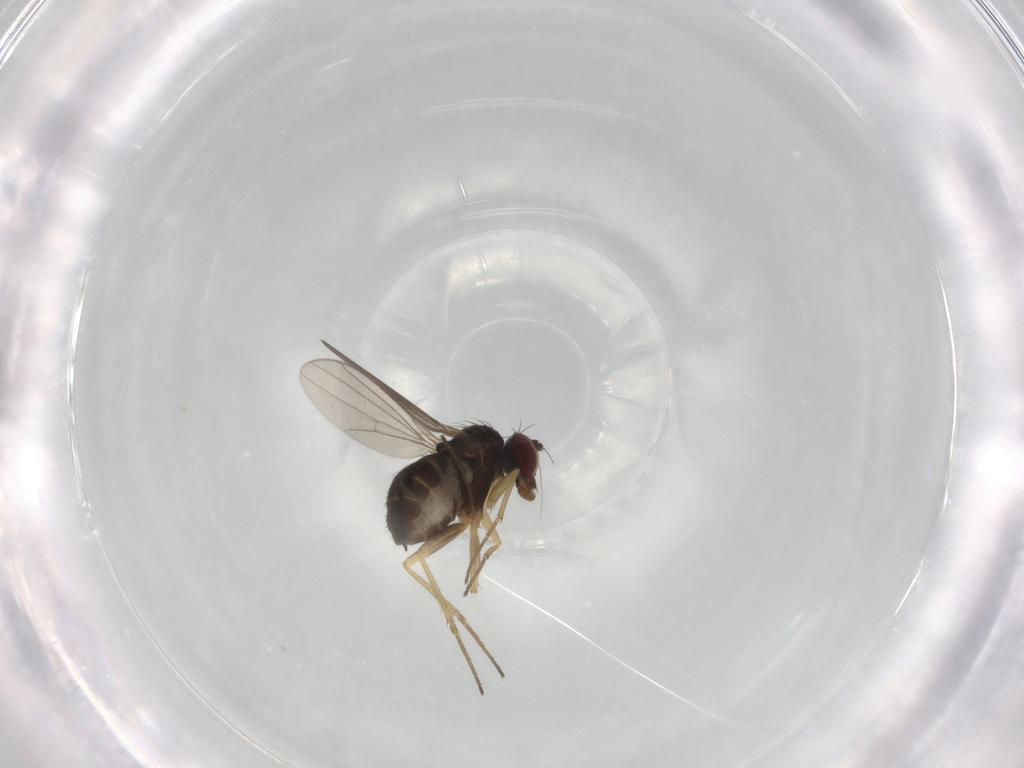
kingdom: Animalia
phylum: Arthropoda
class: Insecta
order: Diptera
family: Dolichopodidae
